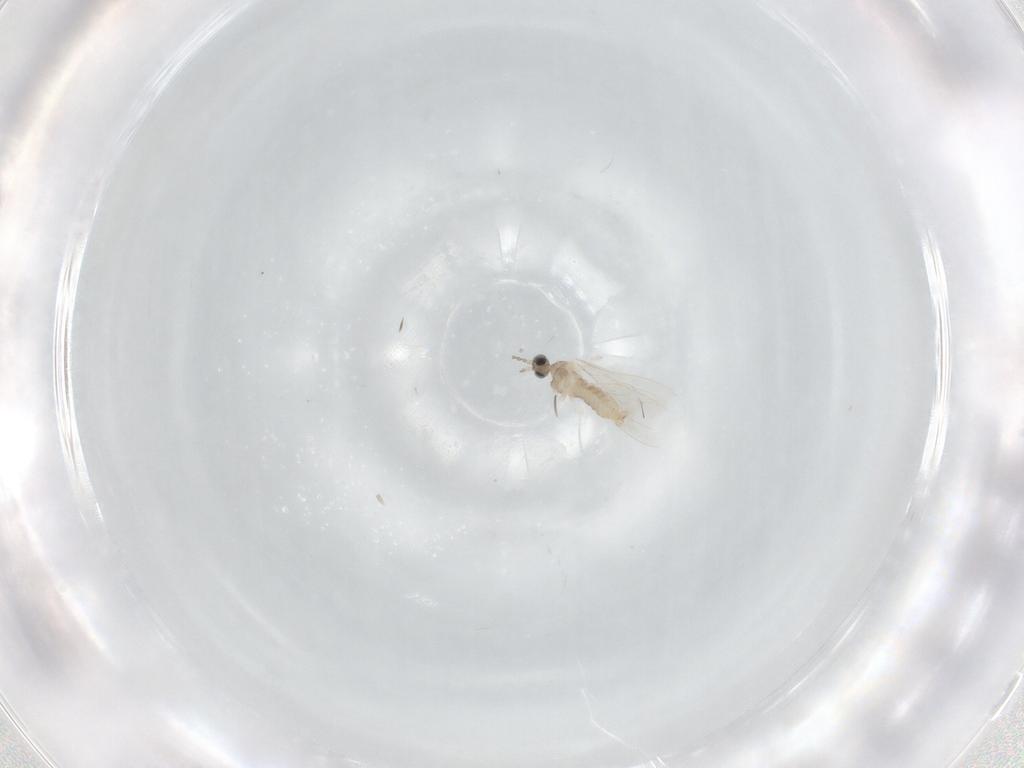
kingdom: Animalia
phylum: Arthropoda
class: Insecta
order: Diptera
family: Cecidomyiidae
